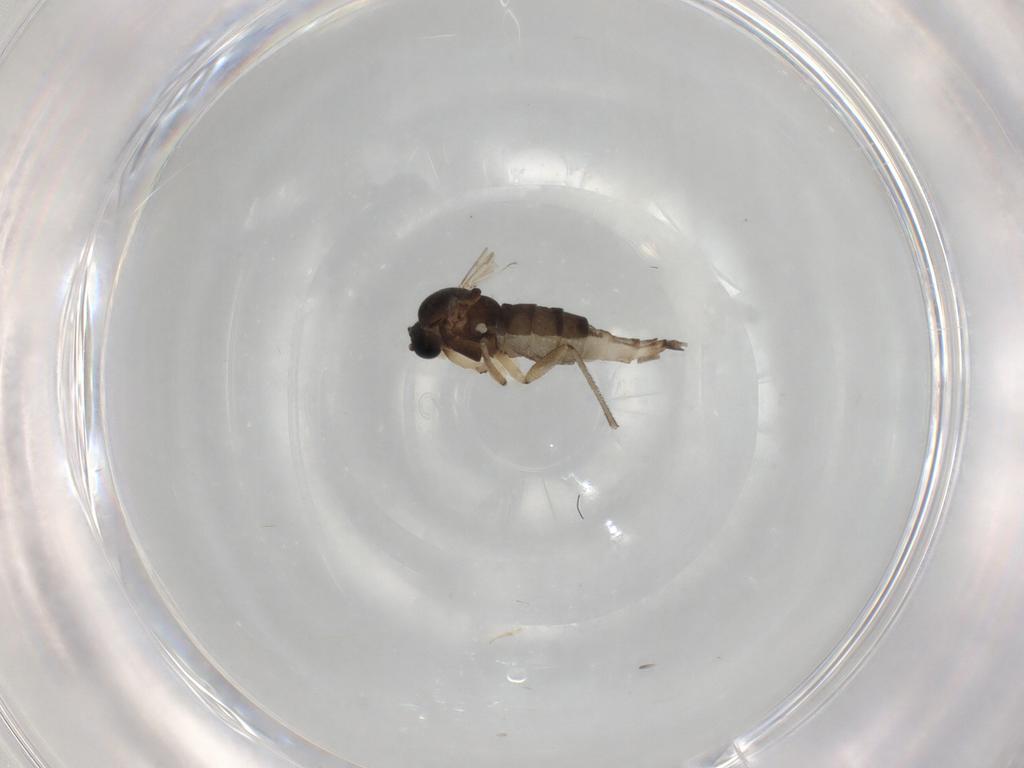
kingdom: Animalia
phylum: Arthropoda
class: Insecta
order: Diptera
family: Sciaridae
